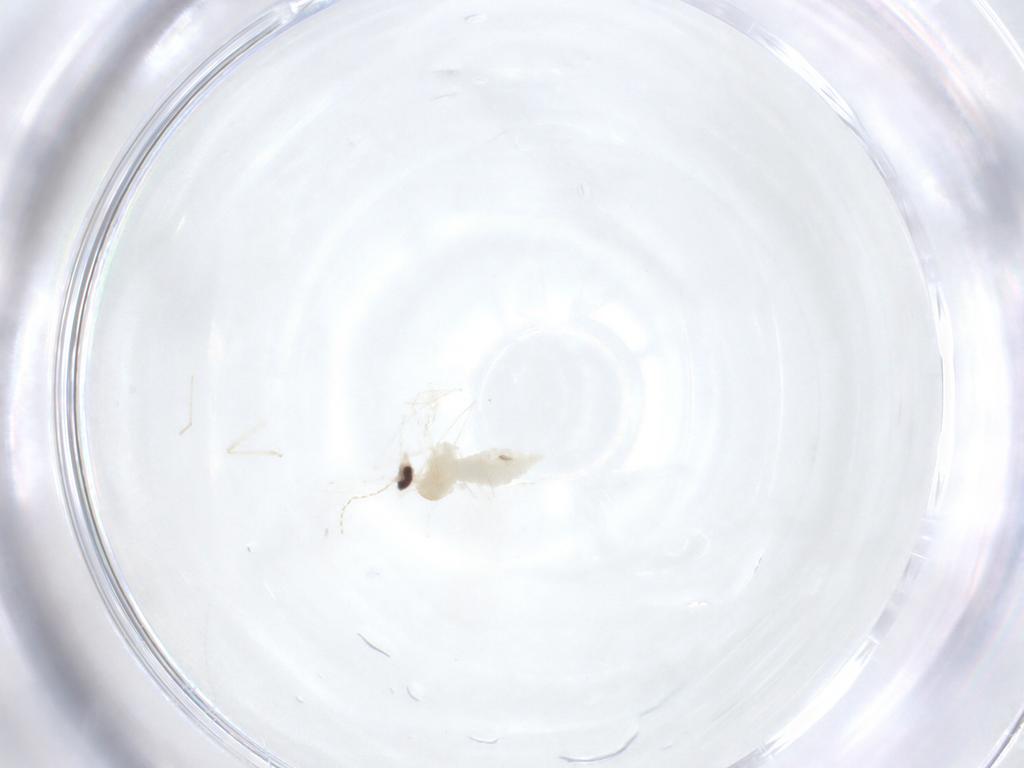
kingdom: Animalia
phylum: Arthropoda
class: Insecta
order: Diptera
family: Cecidomyiidae
